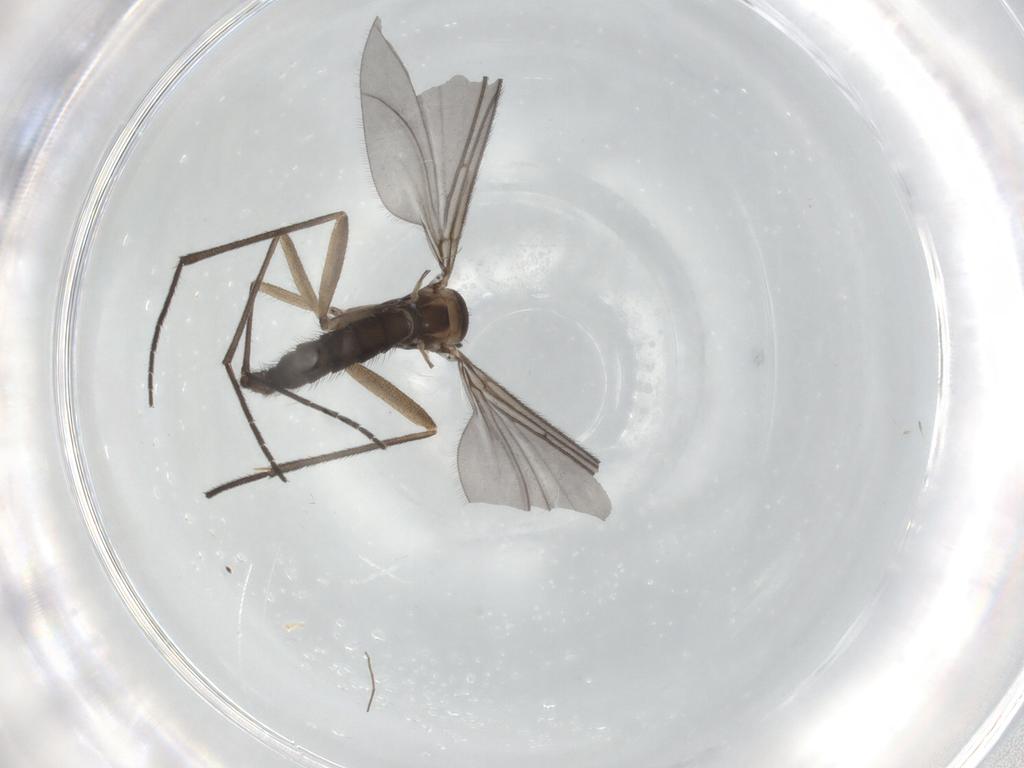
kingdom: Animalia
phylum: Arthropoda
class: Insecta
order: Diptera
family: Sciaridae
